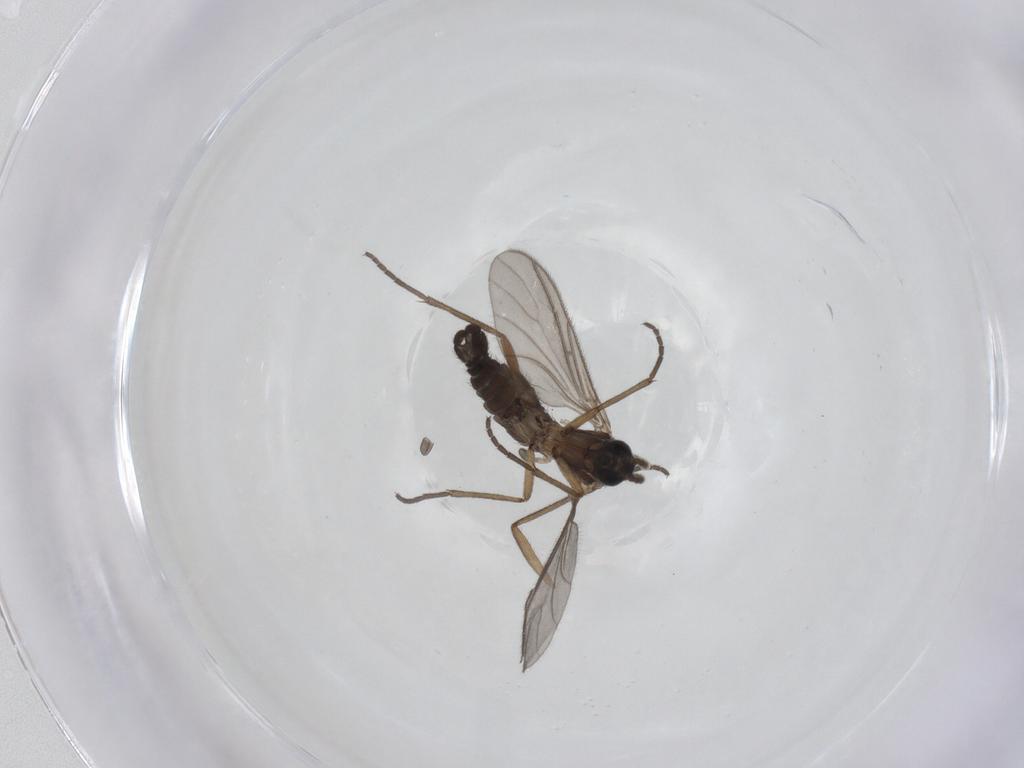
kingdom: Animalia
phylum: Arthropoda
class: Insecta
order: Diptera
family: Sciaridae
